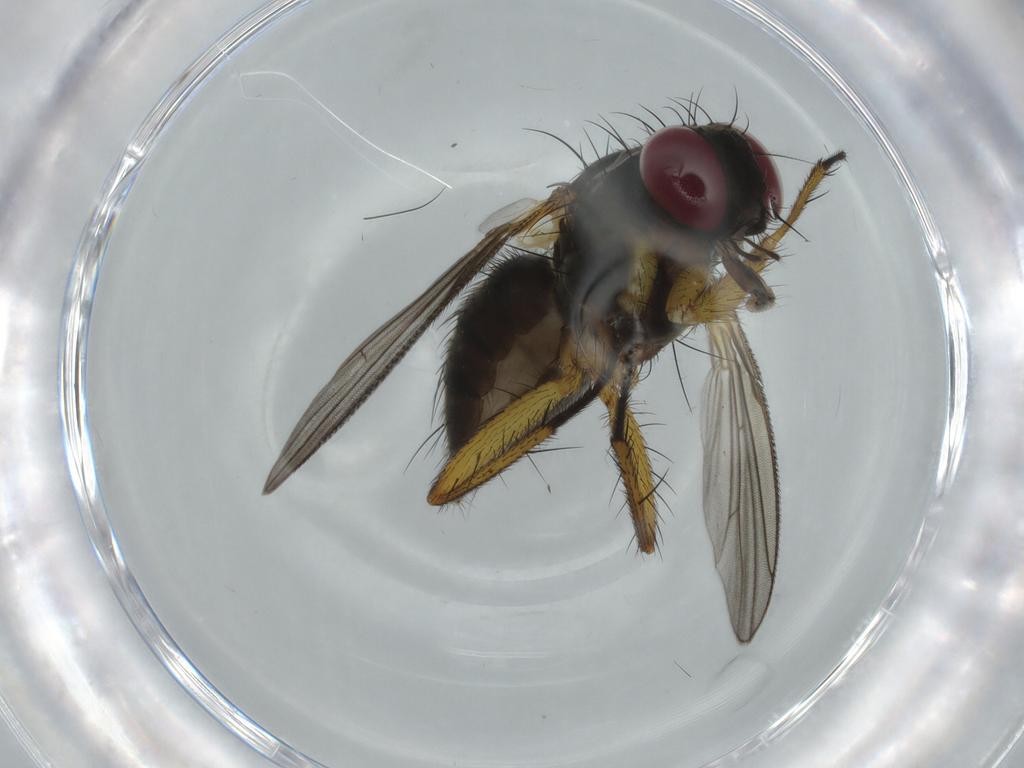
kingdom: Animalia
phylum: Arthropoda
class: Insecta
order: Diptera
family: Muscidae
